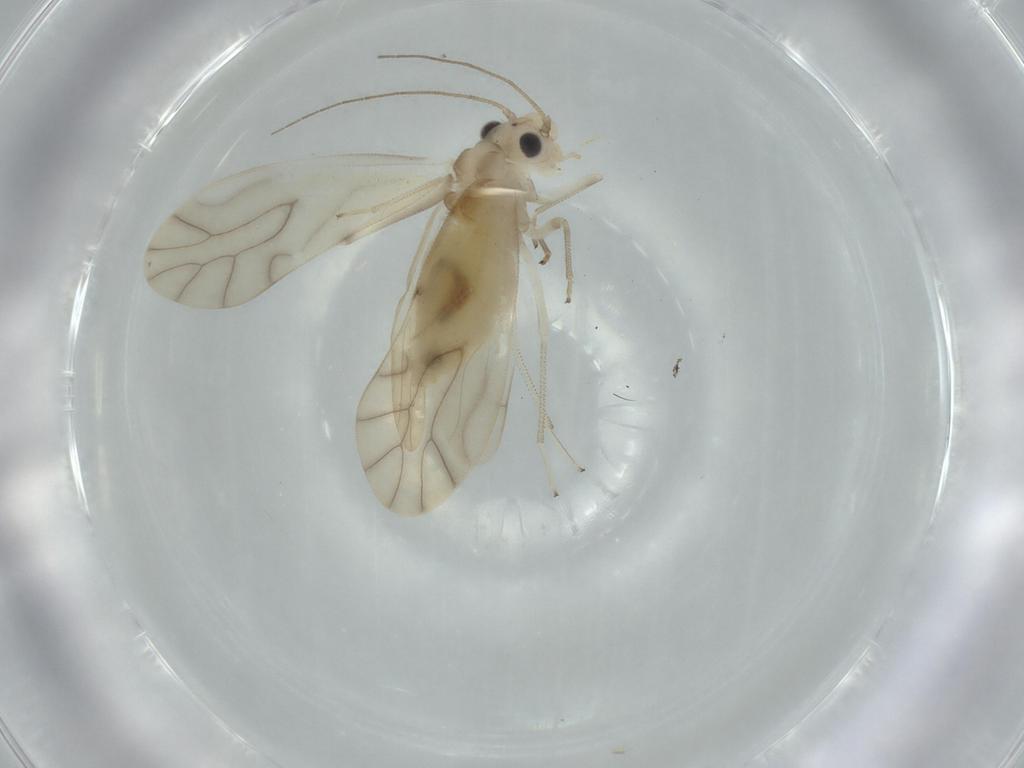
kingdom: Animalia
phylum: Arthropoda
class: Insecta
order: Psocodea
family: Caeciliusidae
